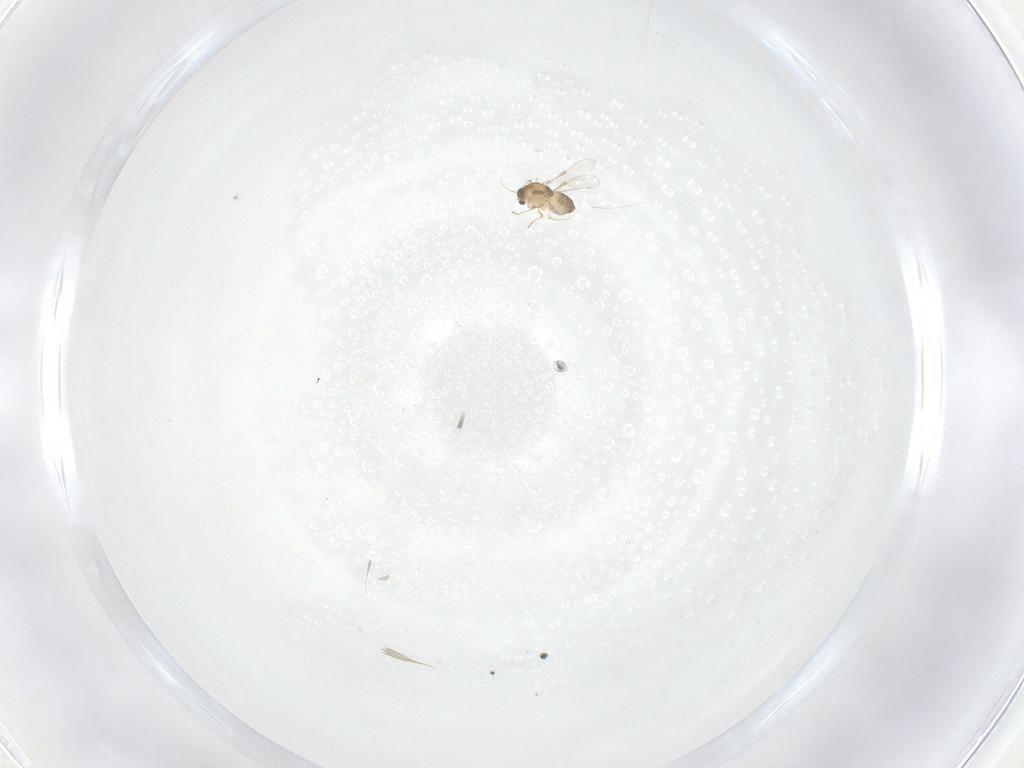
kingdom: Animalia
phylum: Arthropoda
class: Insecta
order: Diptera
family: Chironomidae
